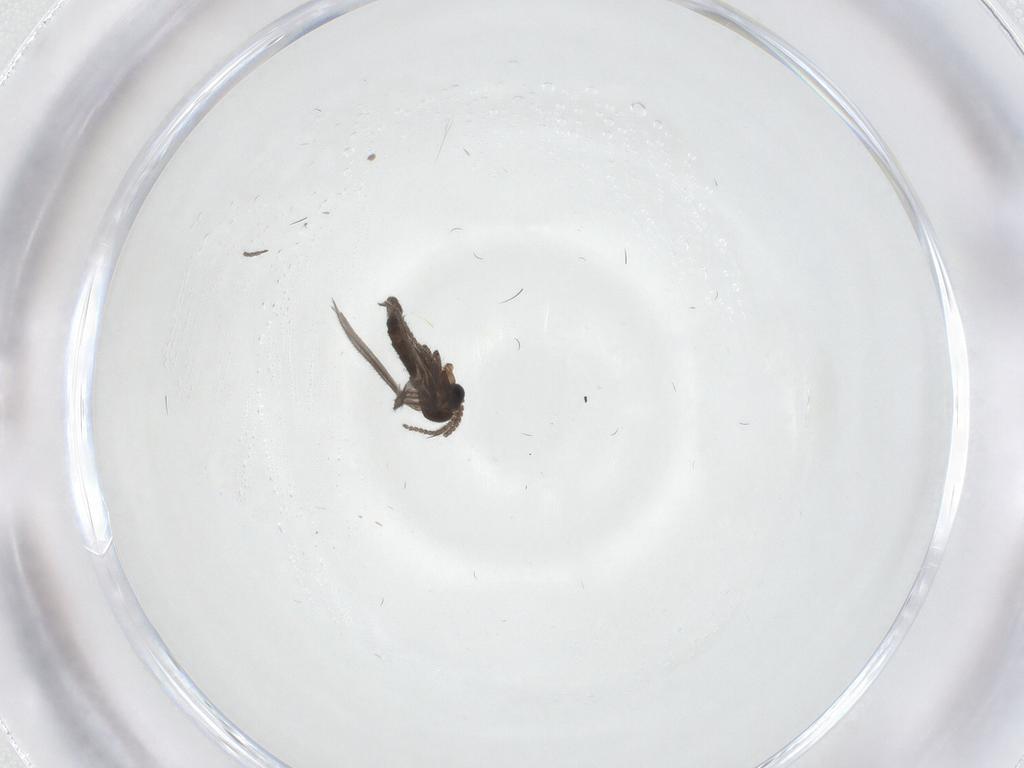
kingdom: Animalia
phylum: Arthropoda
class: Insecta
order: Diptera
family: Sciaridae
